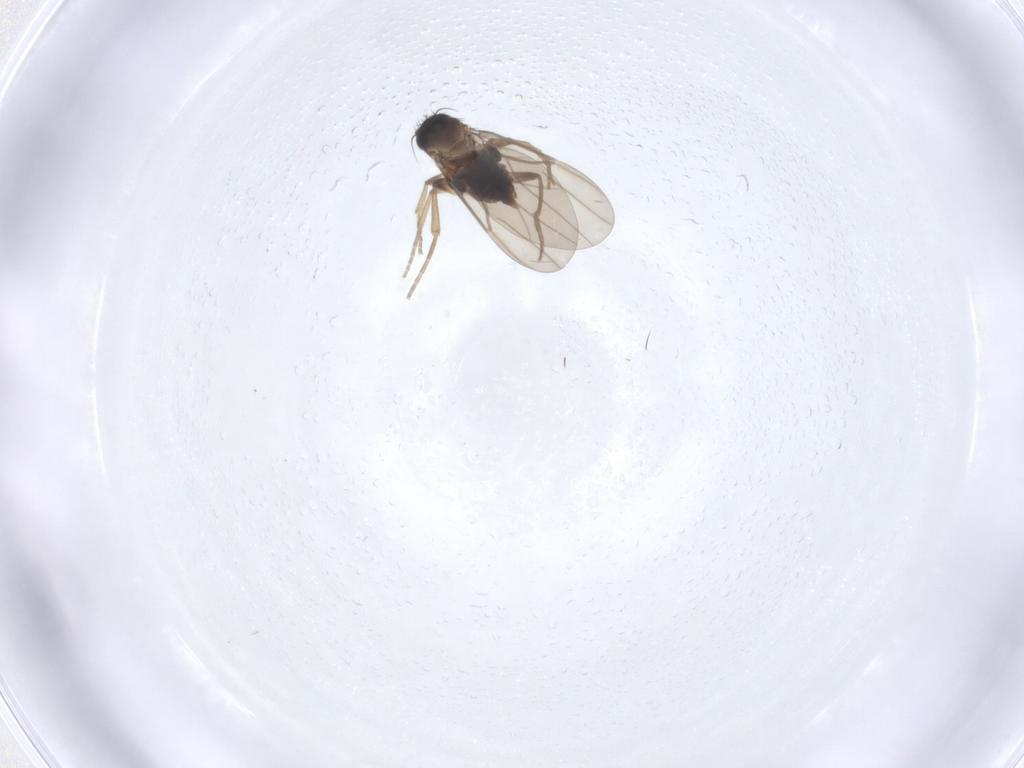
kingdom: Animalia
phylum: Arthropoda
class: Insecta
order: Diptera
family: Phoridae
